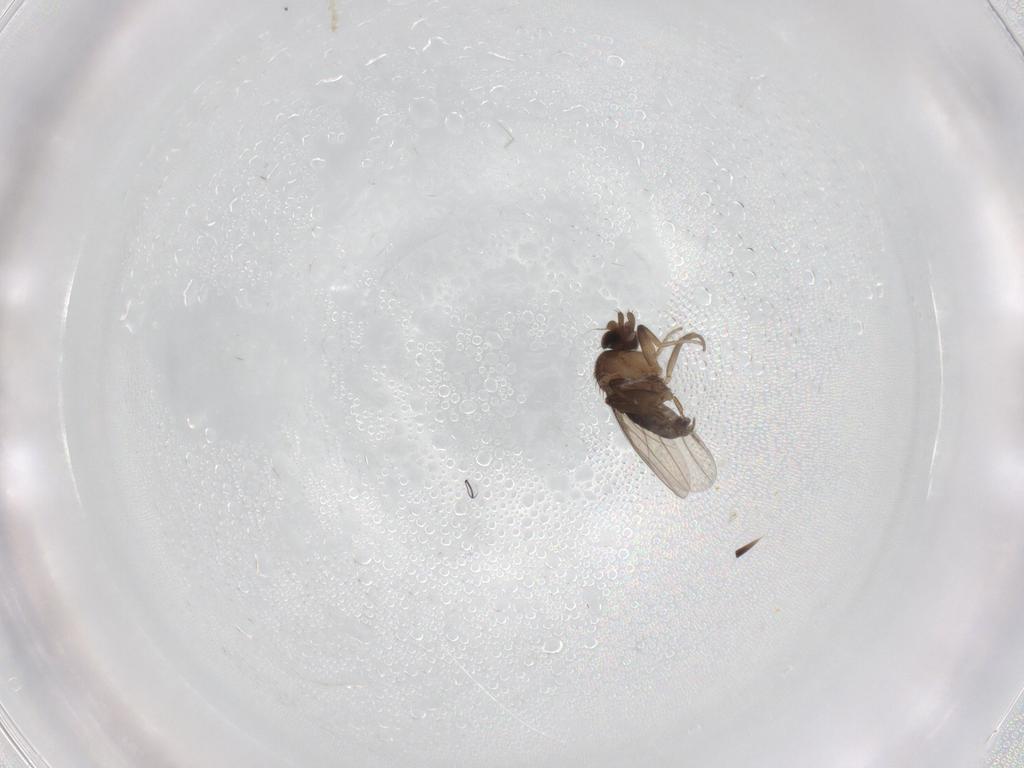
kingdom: Animalia
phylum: Arthropoda
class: Insecta
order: Diptera
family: Phoridae
